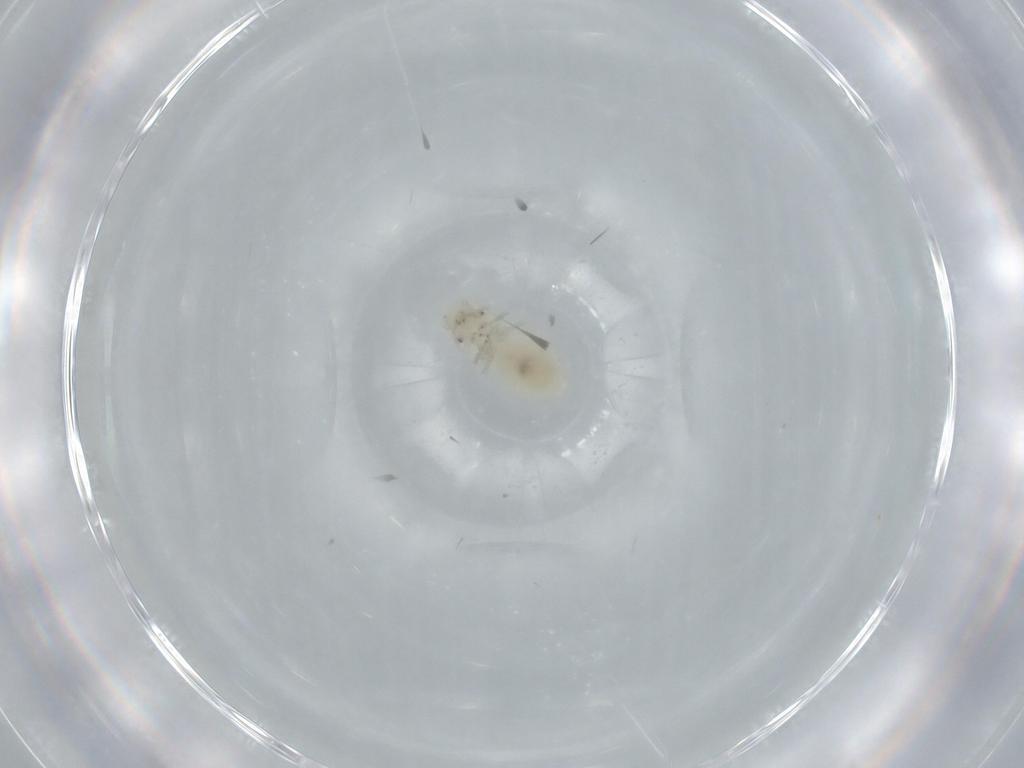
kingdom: Animalia
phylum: Arthropoda
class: Insecta
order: Psocodea
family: Caeciliusidae
